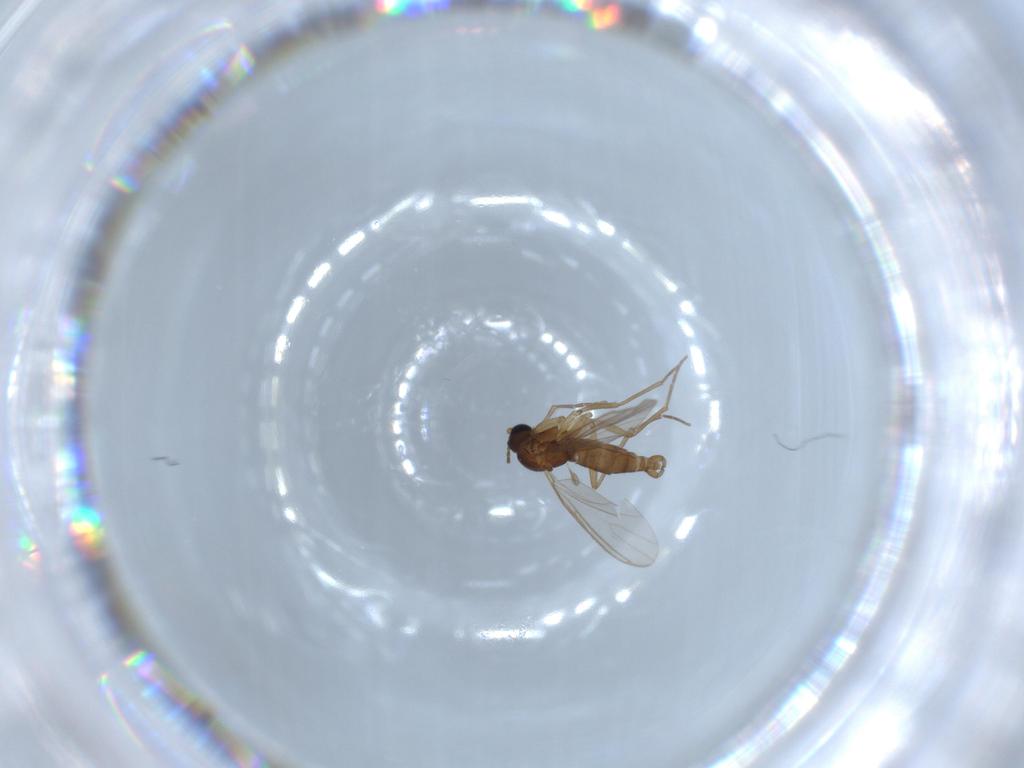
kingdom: Animalia
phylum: Arthropoda
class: Insecta
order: Diptera
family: Sciaridae
